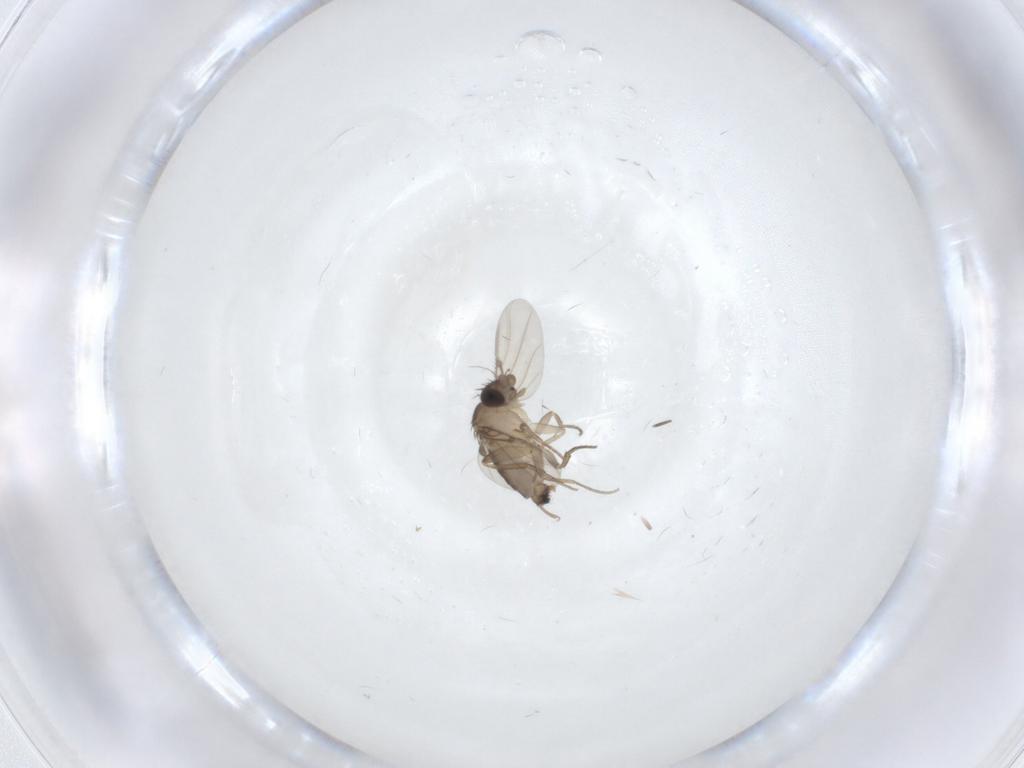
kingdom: Animalia
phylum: Arthropoda
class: Insecta
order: Diptera
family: Phoridae
